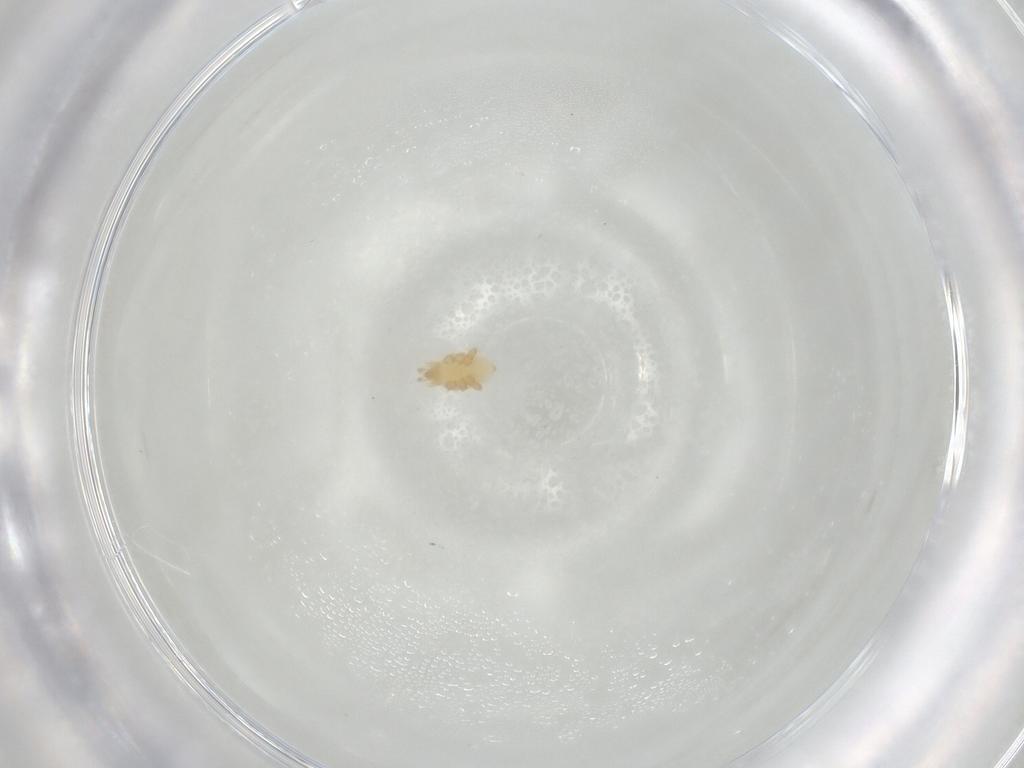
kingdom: Animalia
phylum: Arthropoda
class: Arachnida
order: Mesostigmata
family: Parasitidae
